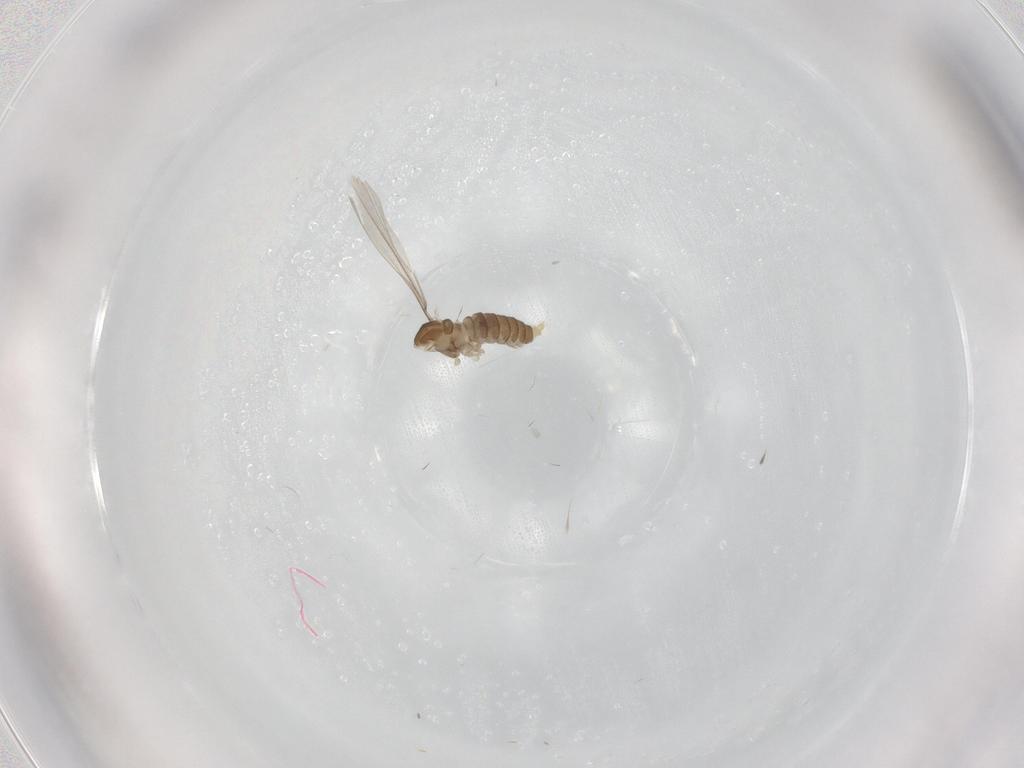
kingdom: Animalia
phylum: Arthropoda
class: Insecta
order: Diptera
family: Cecidomyiidae
